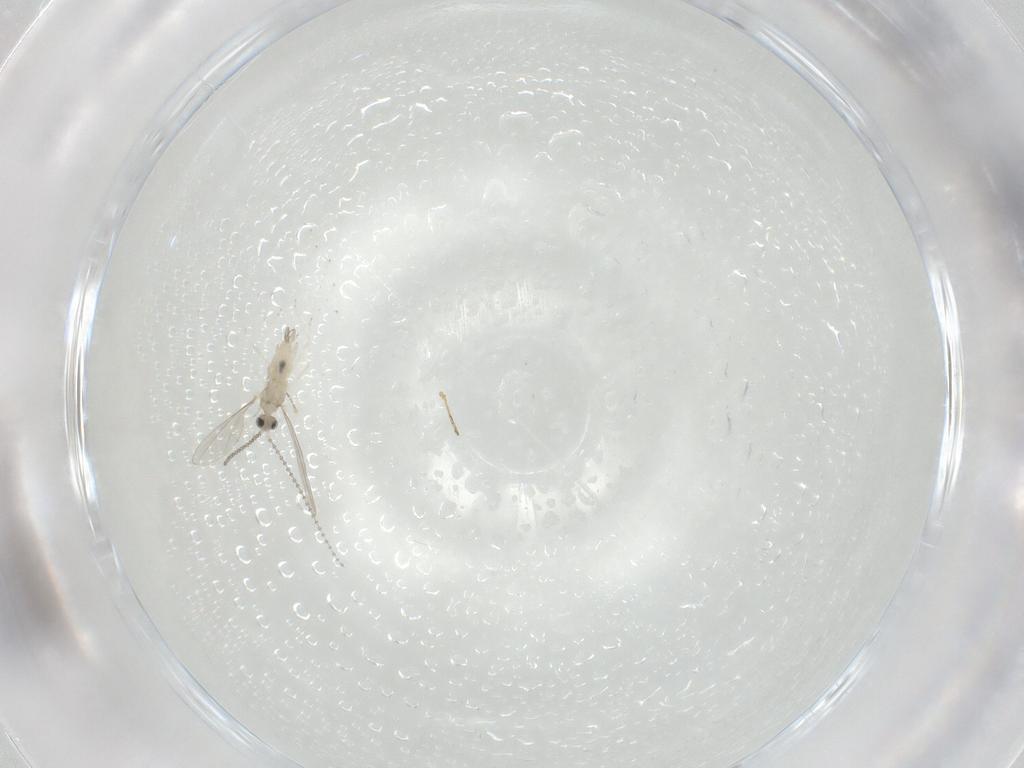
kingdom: Animalia
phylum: Arthropoda
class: Insecta
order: Diptera
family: Cecidomyiidae
